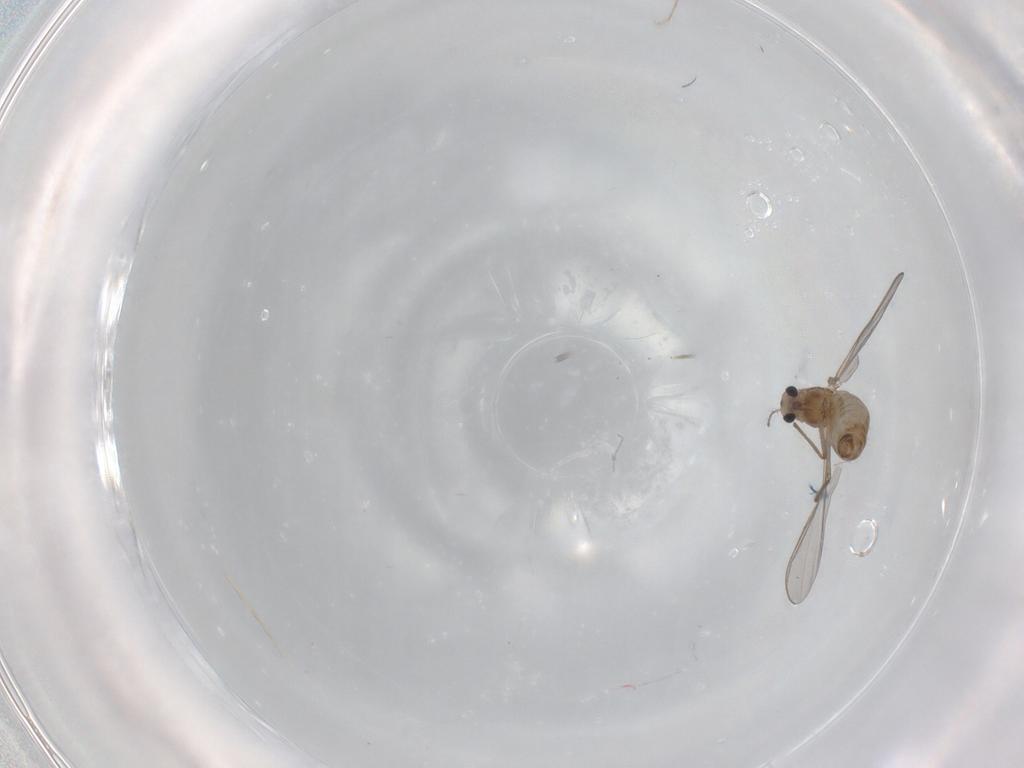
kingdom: Animalia
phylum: Arthropoda
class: Insecta
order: Diptera
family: Chironomidae
